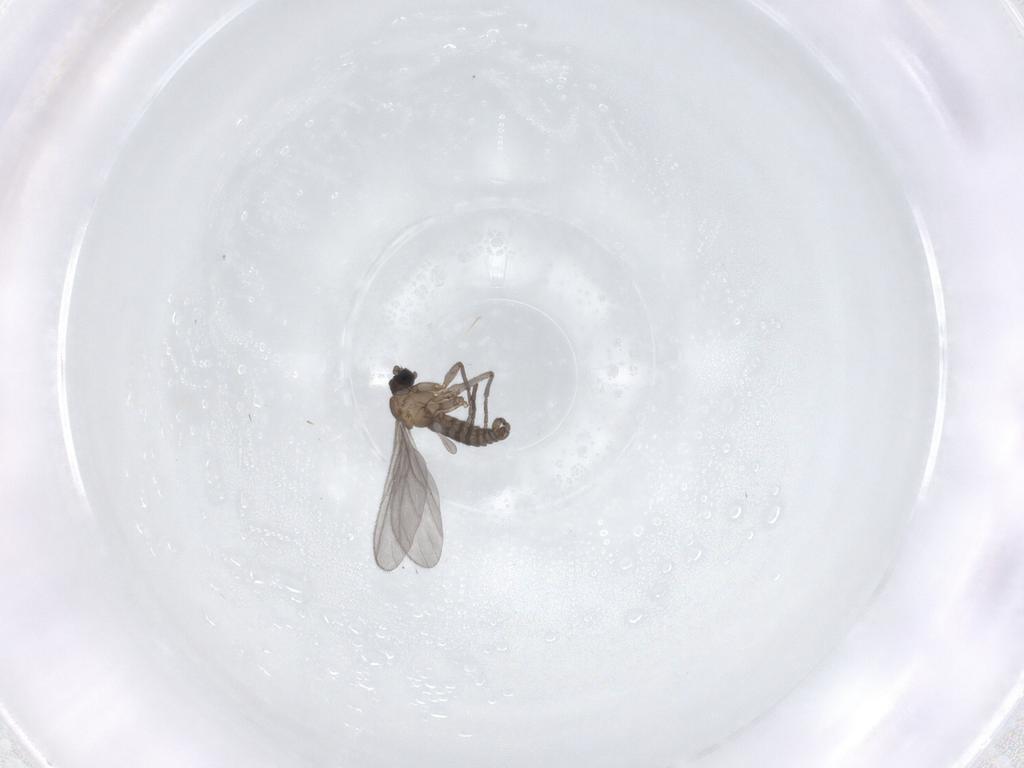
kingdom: Animalia
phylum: Arthropoda
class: Insecta
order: Diptera
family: Sciaridae
